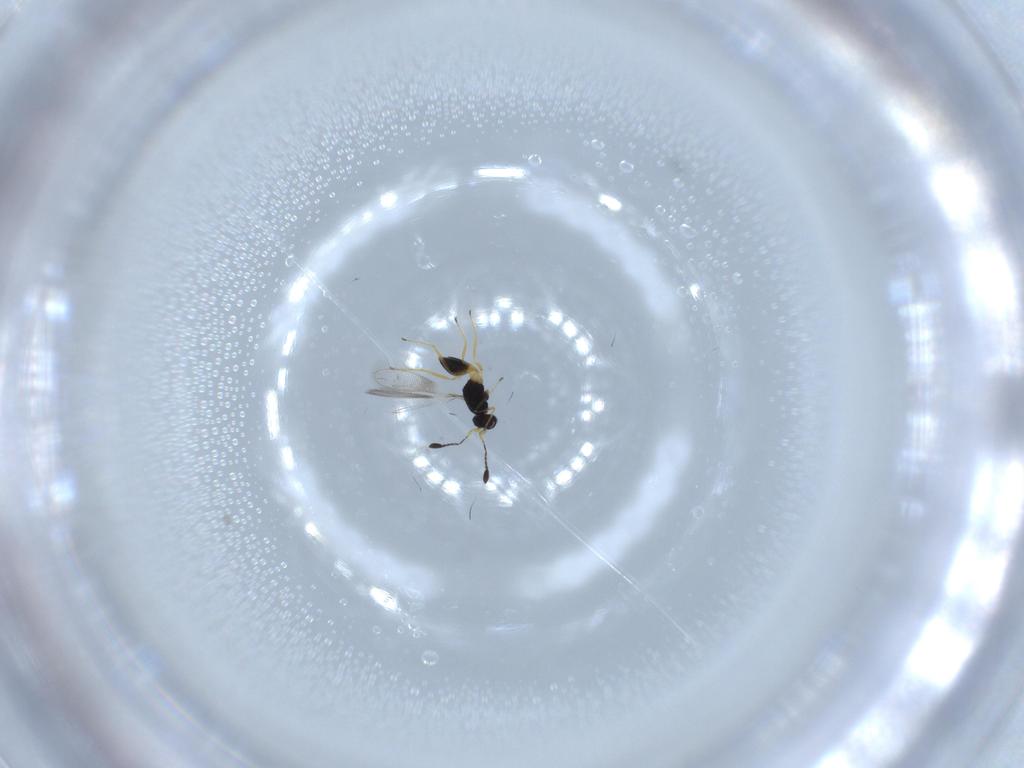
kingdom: Animalia
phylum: Arthropoda
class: Insecta
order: Hymenoptera
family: Mymaridae
